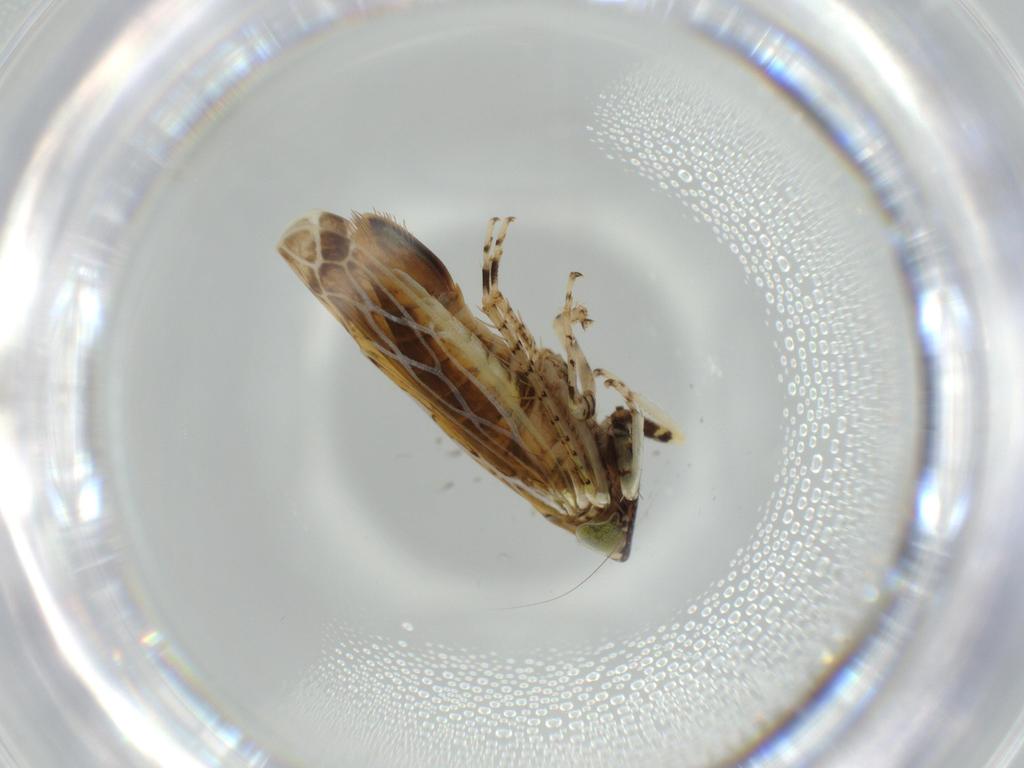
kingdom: Animalia
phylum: Arthropoda
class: Insecta
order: Hemiptera
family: Cicadellidae
